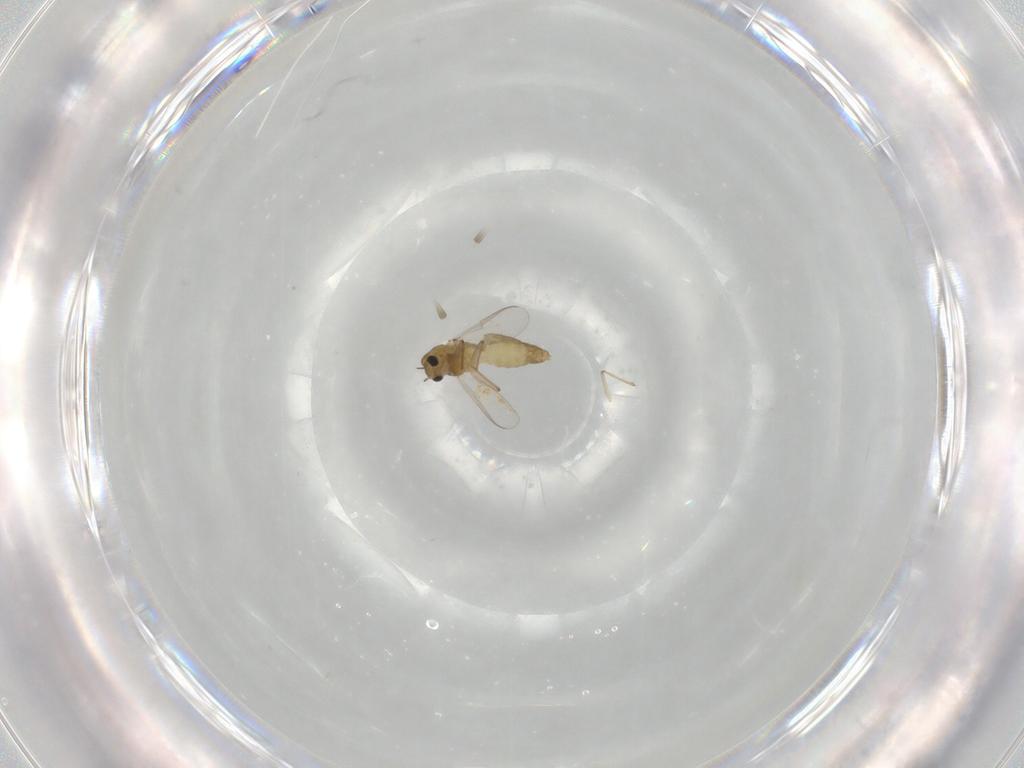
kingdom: Animalia
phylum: Arthropoda
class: Insecta
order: Diptera
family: Chironomidae
